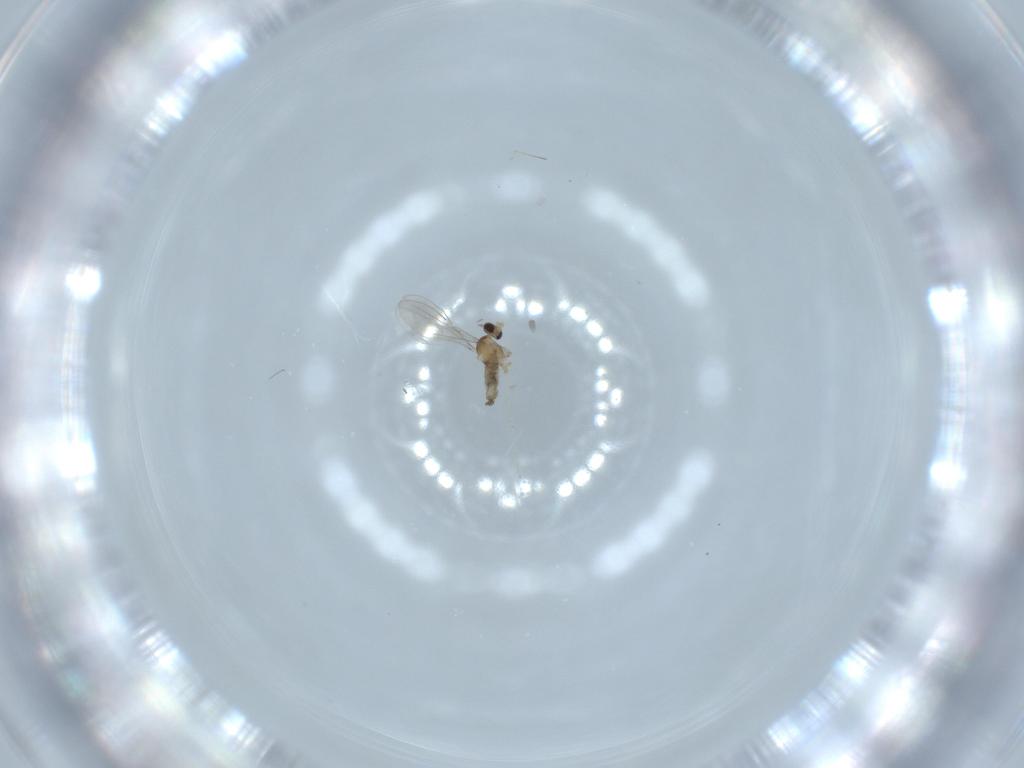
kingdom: Animalia
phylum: Arthropoda
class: Insecta
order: Diptera
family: Cecidomyiidae
